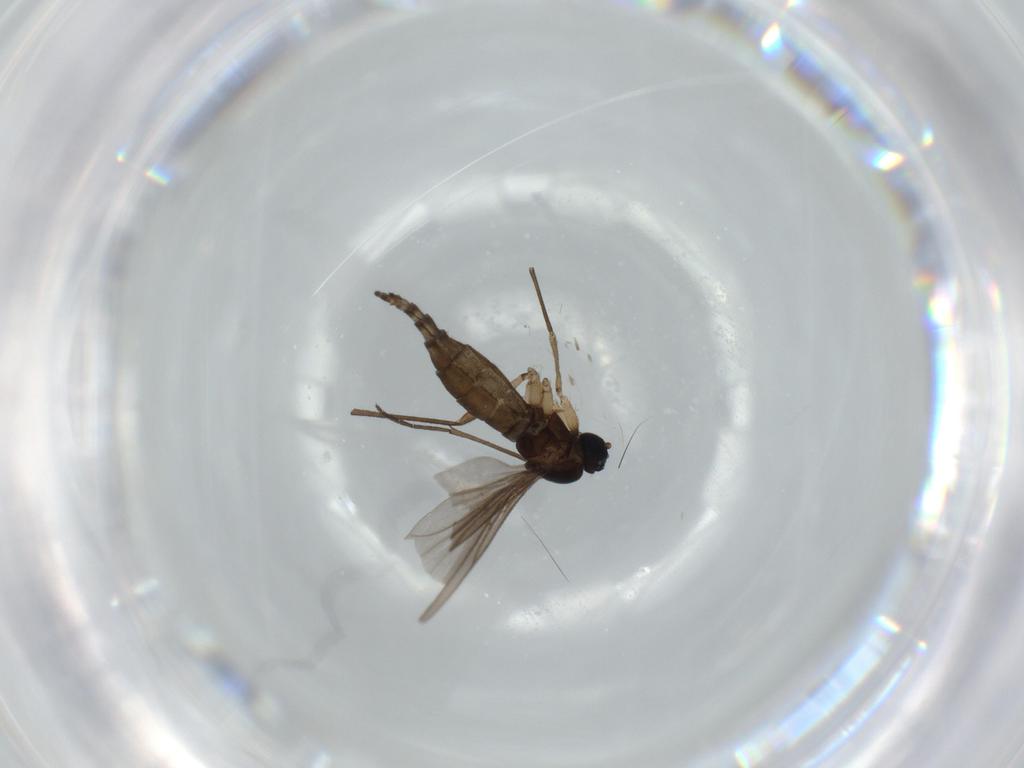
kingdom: Animalia
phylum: Arthropoda
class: Insecta
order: Diptera
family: Sciaridae
